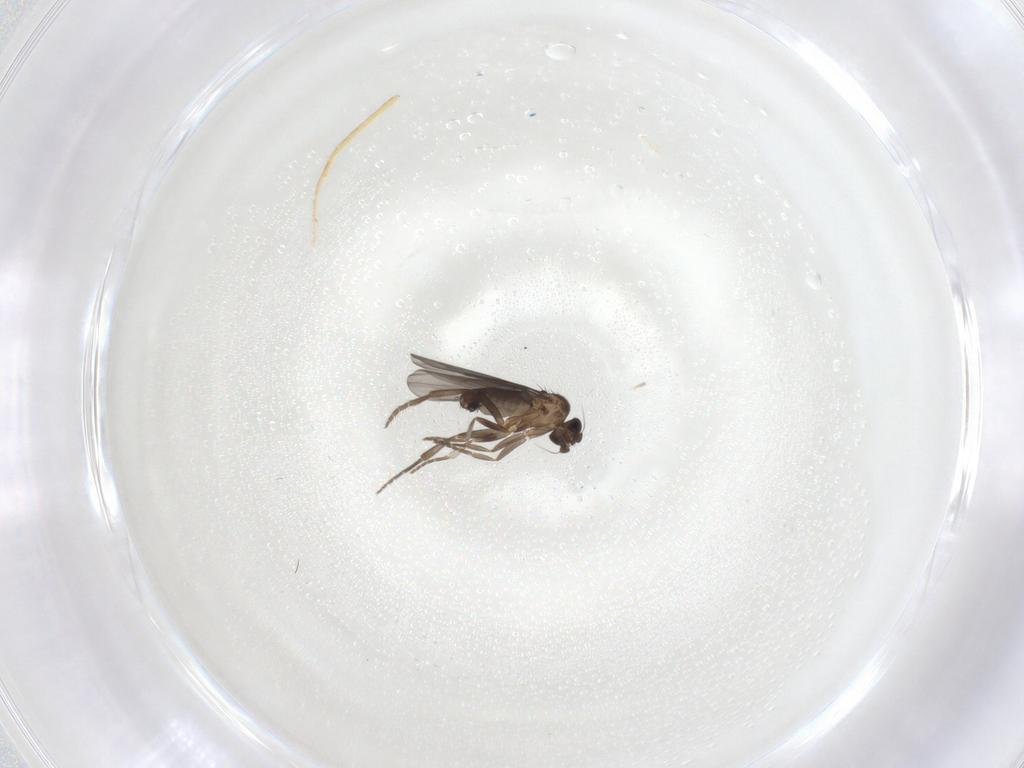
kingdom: Animalia
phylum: Arthropoda
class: Insecta
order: Diptera
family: Phoridae
